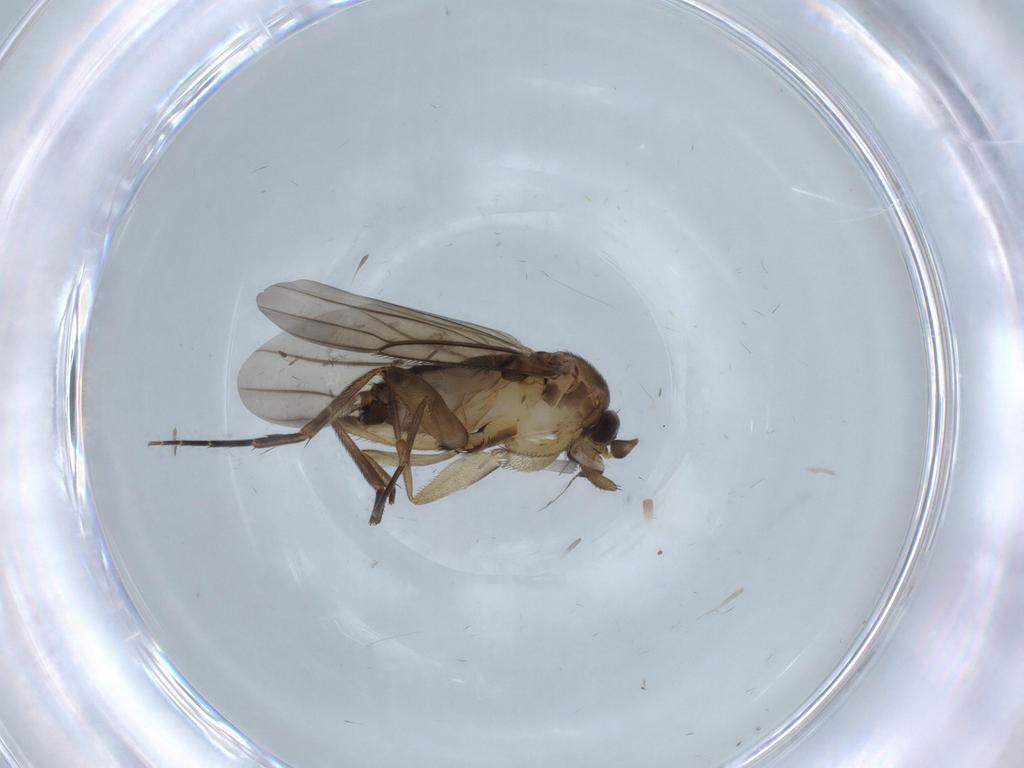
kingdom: Animalia
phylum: Arthropoda
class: Insecta
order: Diptera
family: Phoridae
